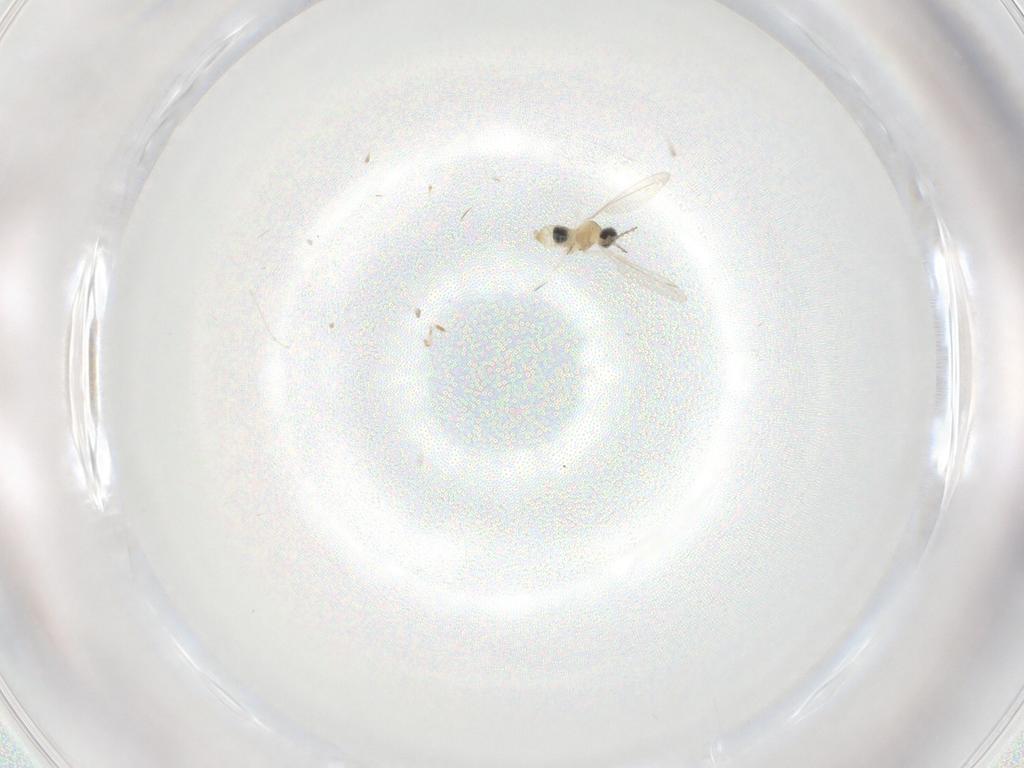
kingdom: Animalia
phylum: Arthropoda
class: Insecta
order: Diptera
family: Cecidomyiidae
